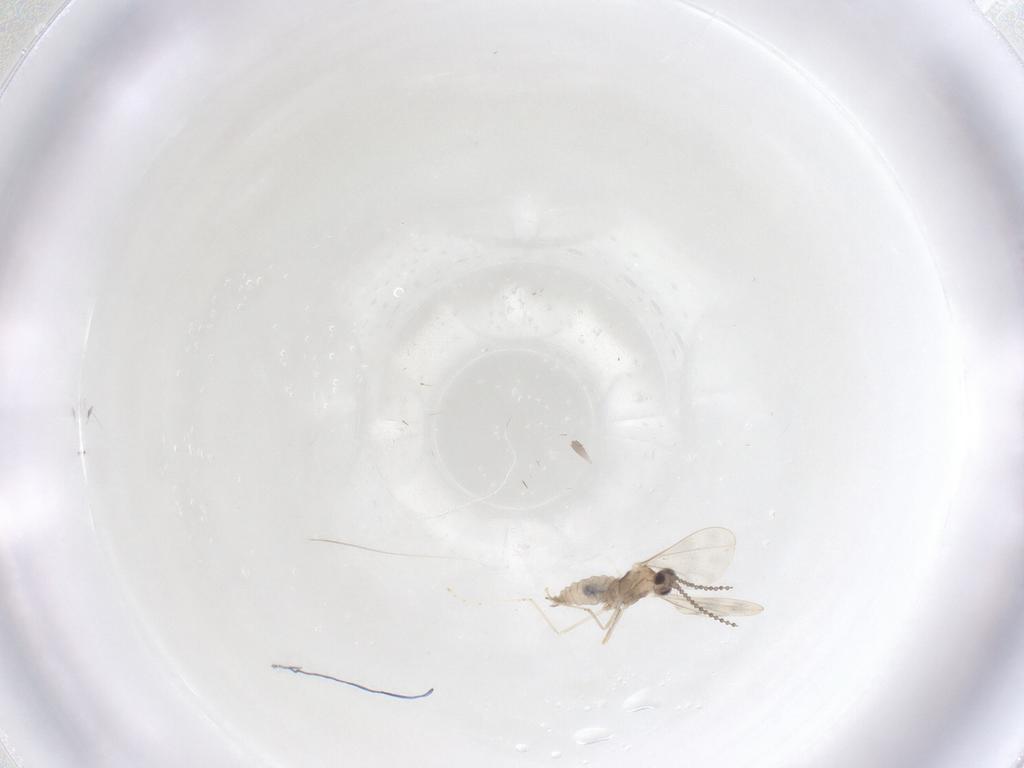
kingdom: Animalia
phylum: Arthropoda
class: Insecta
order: Diptera
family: Cecidomyiidae
